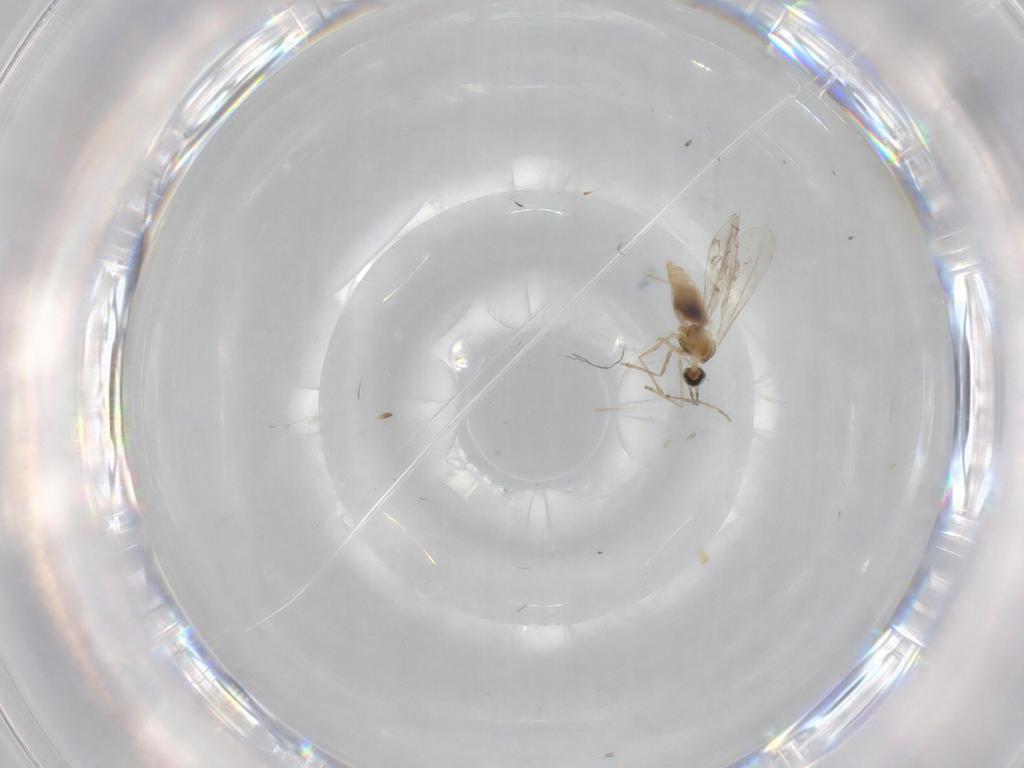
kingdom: Animalia
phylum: Arthropoda
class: Insecta
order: Diptera
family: Cecidomyiidae
